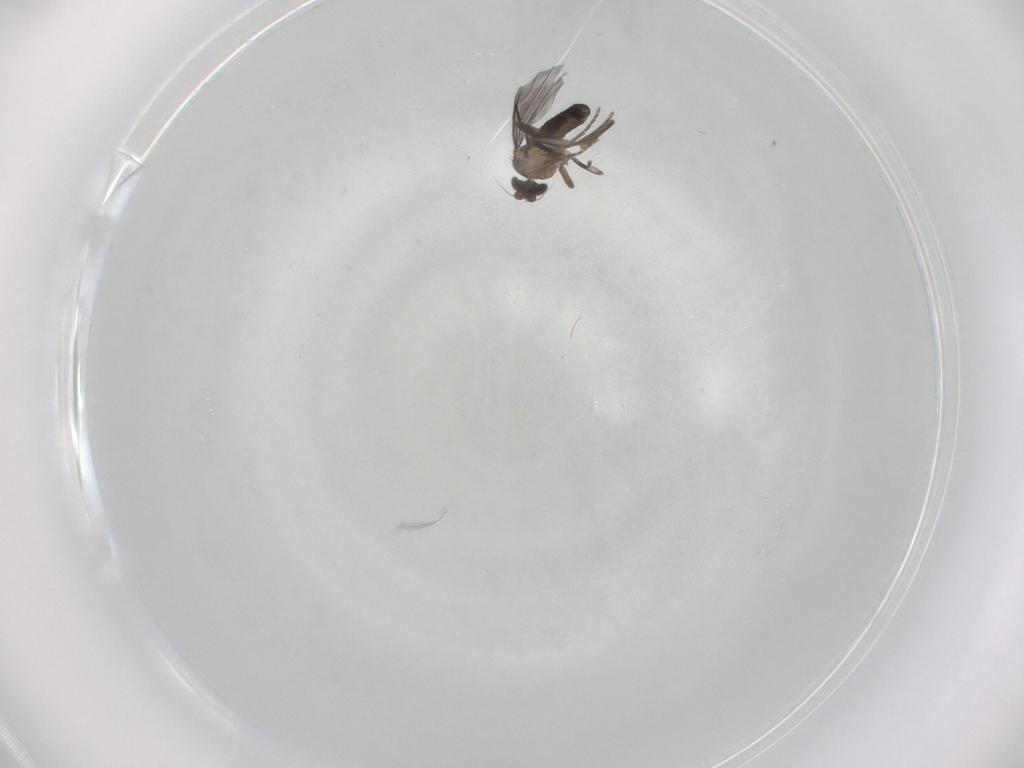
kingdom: Animalia
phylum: Arthropoda
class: Insecta
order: Diptera
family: Phoridae
